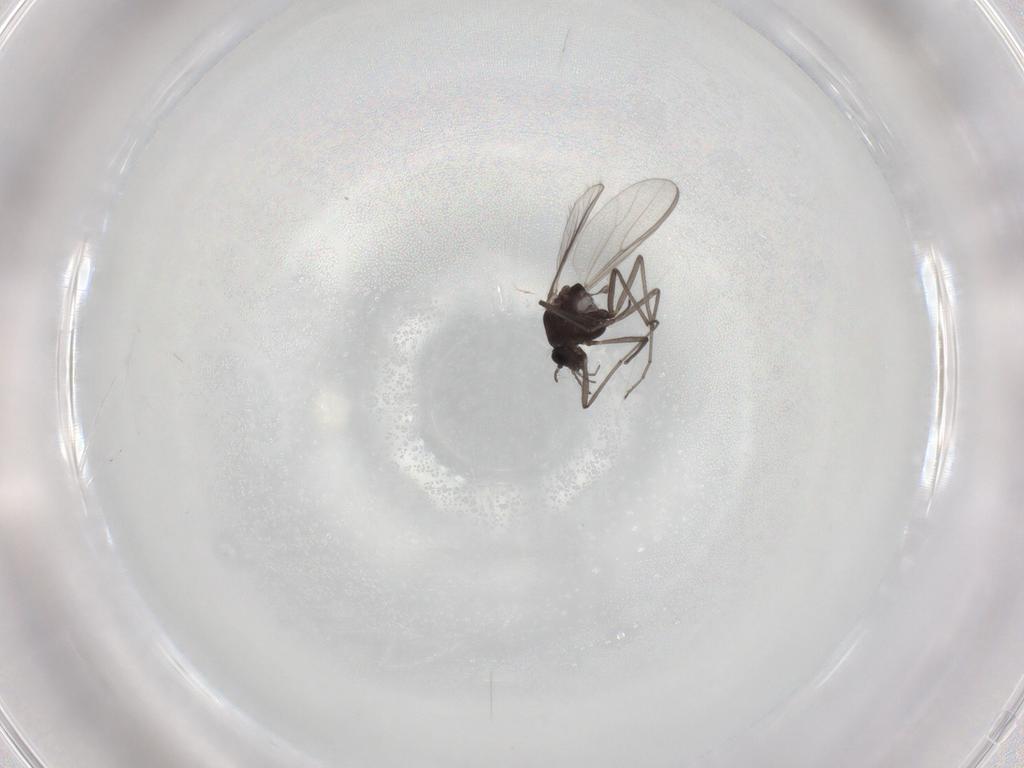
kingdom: Animalia
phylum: Arthropoda
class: Insecta
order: Diptera
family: Chironomidae
